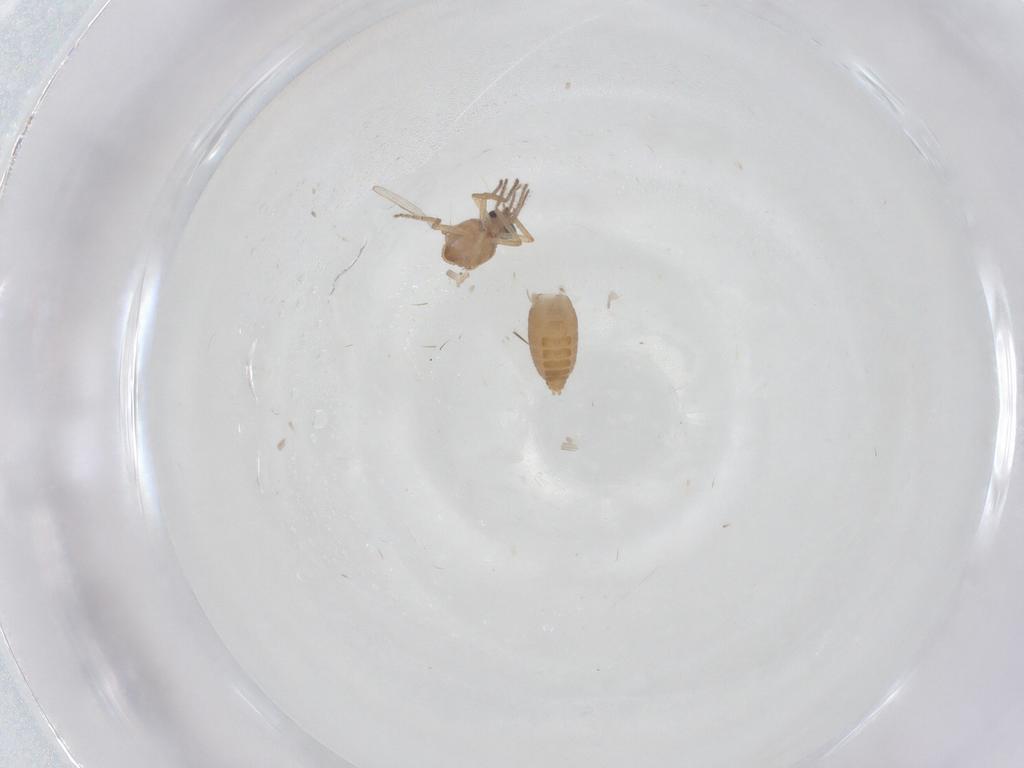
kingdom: Animalia
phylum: Arthropoda
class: Insecta
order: Diptera
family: Ceratopogonidae
